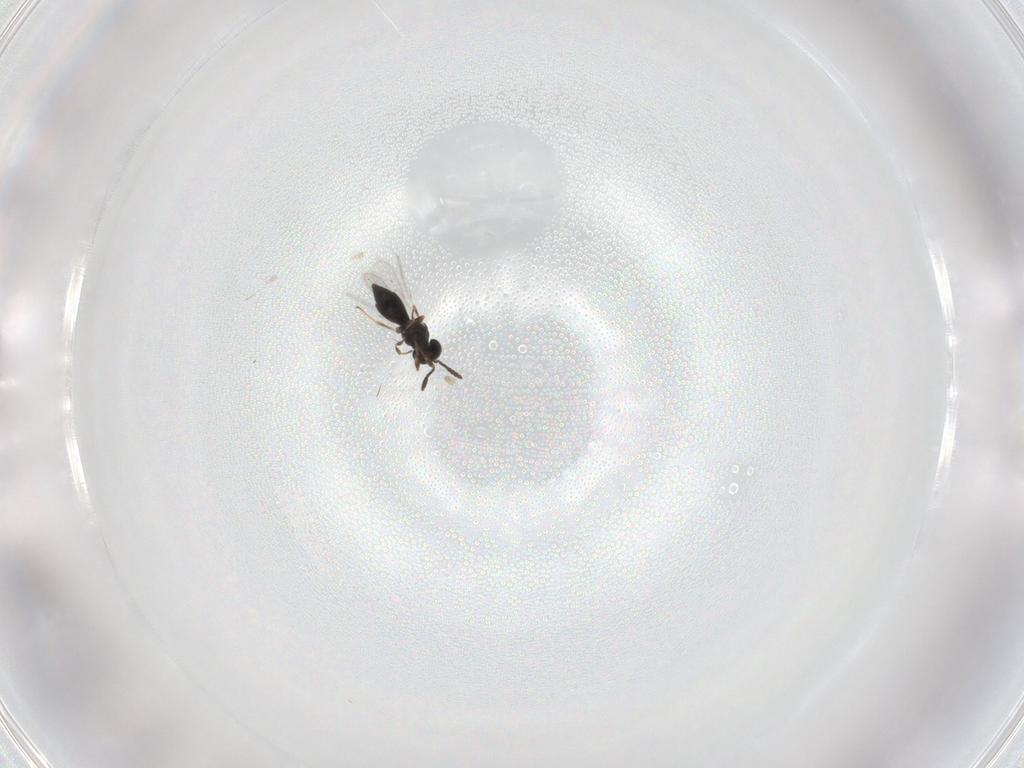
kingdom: Animalia
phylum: Arthropoda
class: Insecta
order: Hymenoptera
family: Scelionidae
